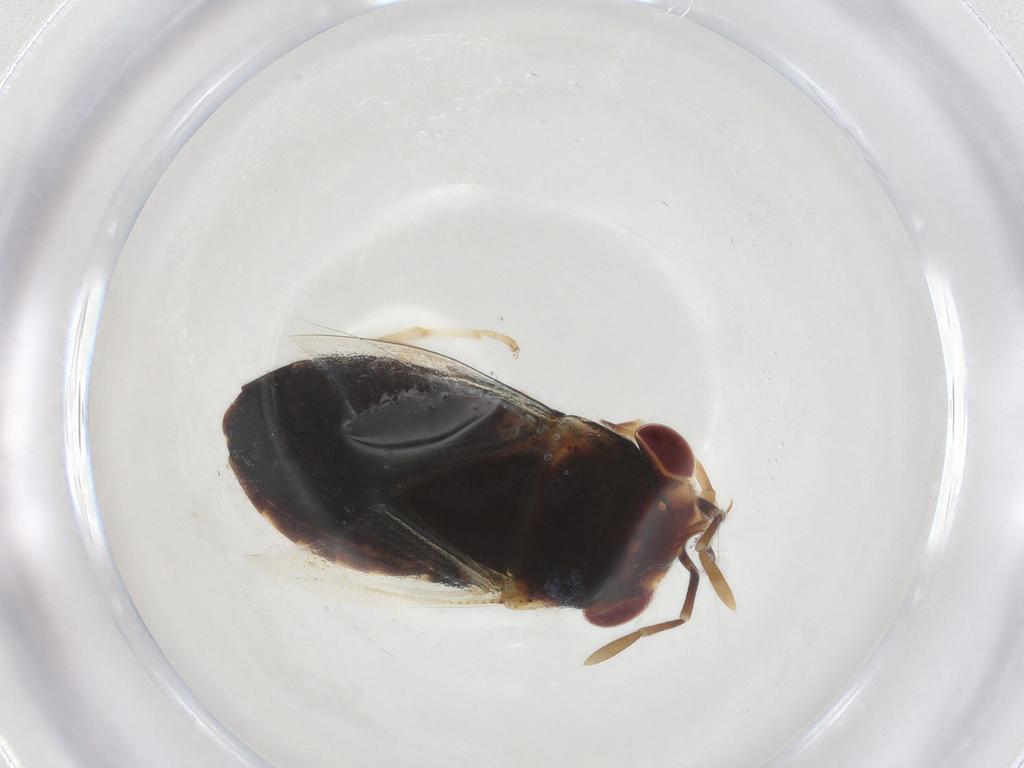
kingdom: Animalia
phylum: Arthropoda
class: Insecta
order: Hemiptera
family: Geocoridae
